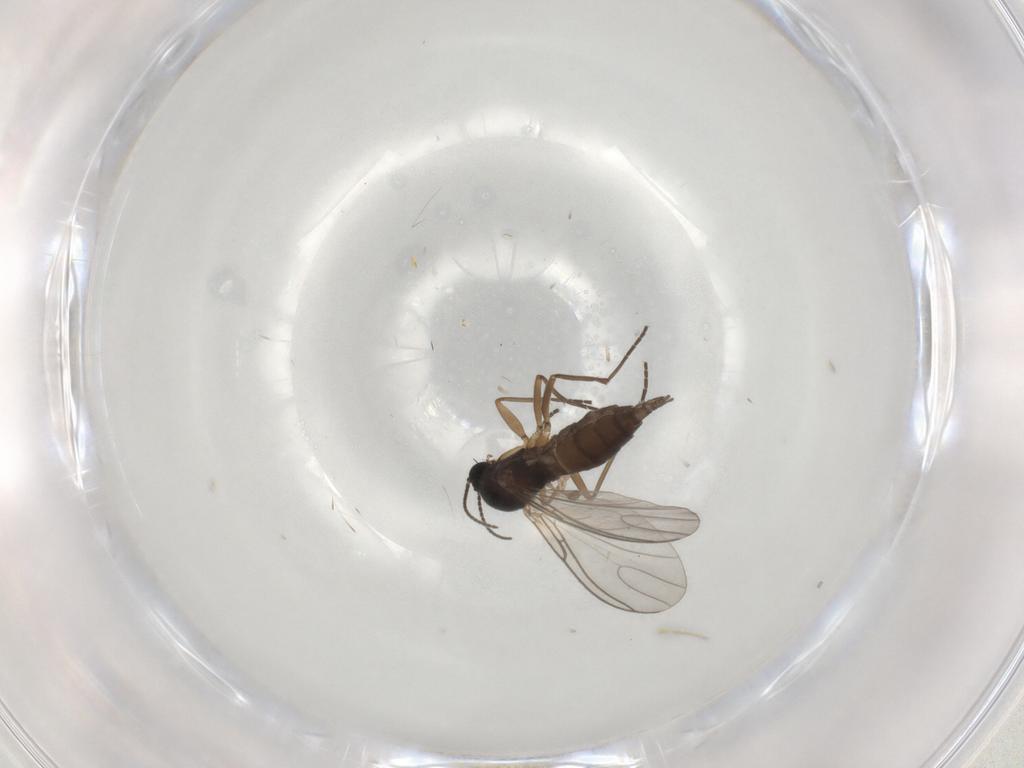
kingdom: Animalia
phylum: Arthropoda
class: Insecta
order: Diptera
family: Sciaridae
